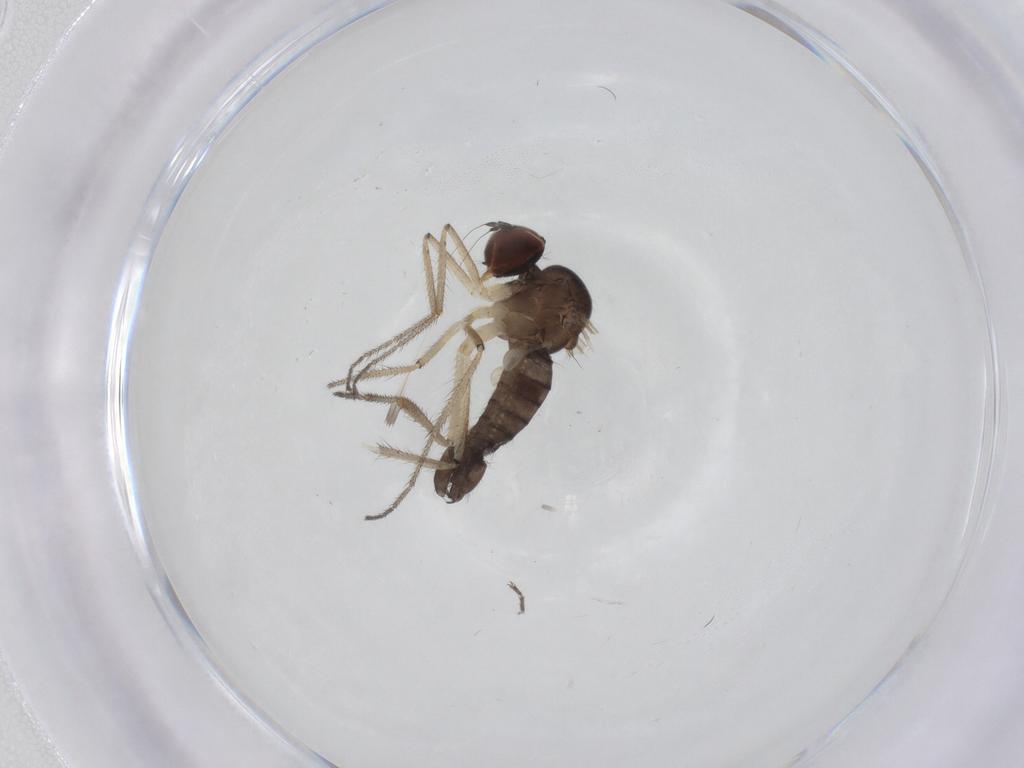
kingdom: Animalia
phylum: Arthropoda
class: Insecta
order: Diptera
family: Hybotidae
